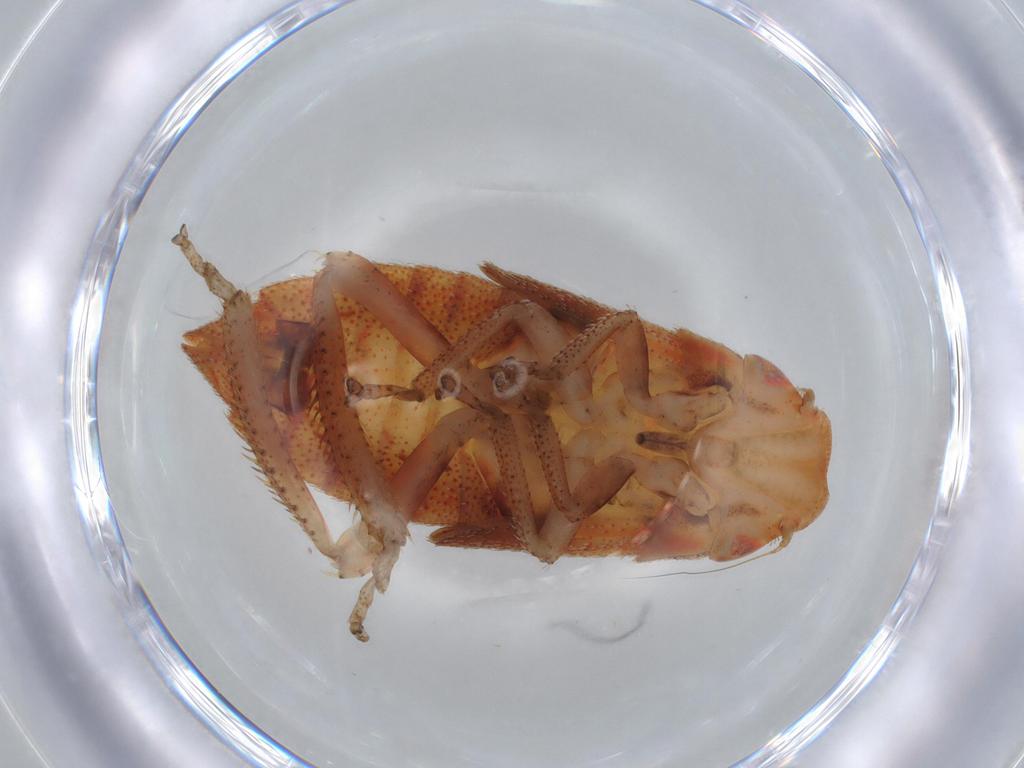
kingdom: Animalia
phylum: Arthropoda
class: Insecta
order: Hemiptera
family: Cicadellidae
